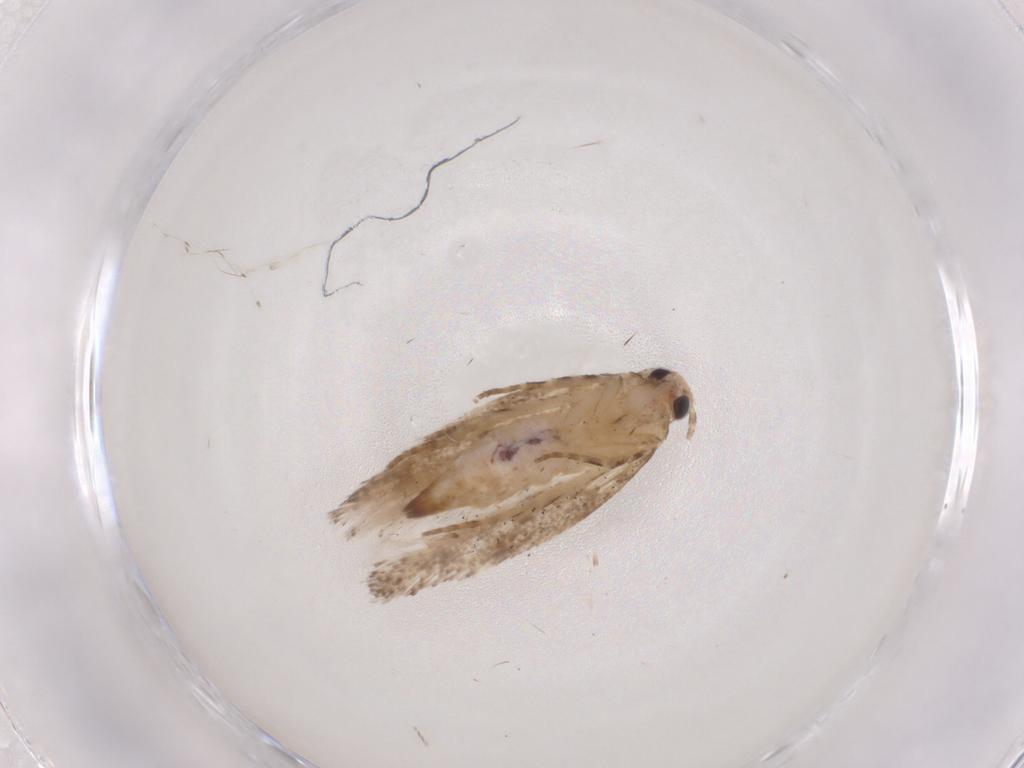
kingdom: Animalia
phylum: Arthropoda
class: Insecta
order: Lepidoptera
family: Gelechiidae
